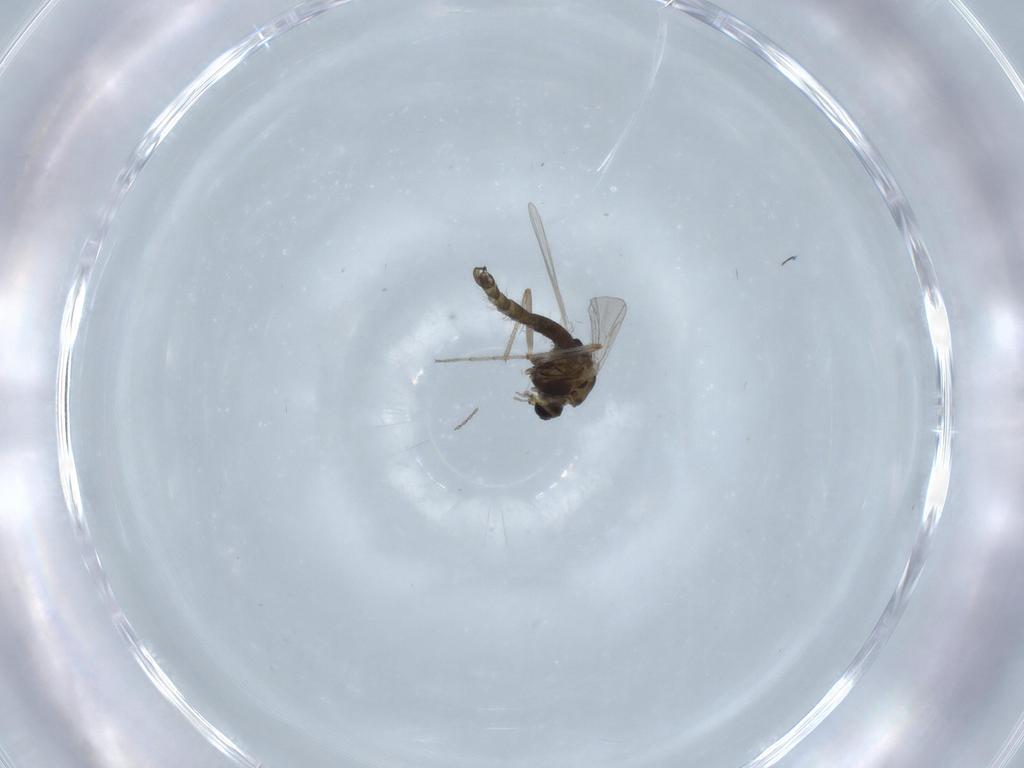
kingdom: Animalia
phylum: Arthropoda
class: Insecta
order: Diptera
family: Chironomidae
